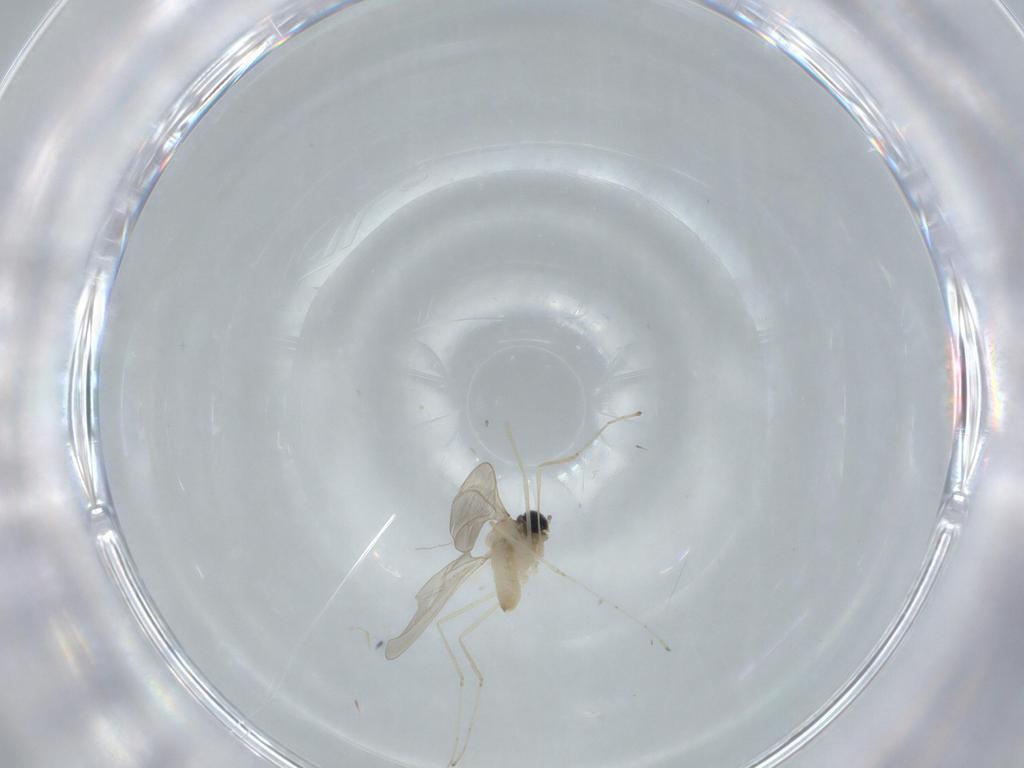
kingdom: Animalia
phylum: Arthropoda
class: Insecta
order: Diptera
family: Cecidomyiidae
